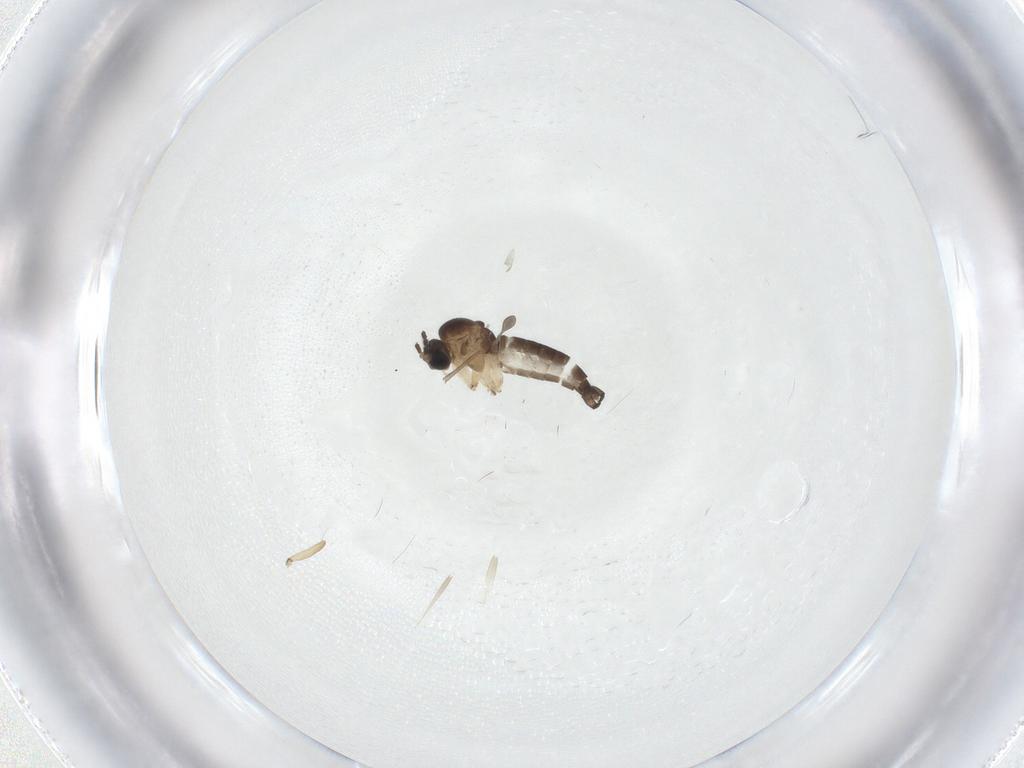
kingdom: Animalia
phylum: Arthropoda
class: Insecta
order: Diptera
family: Sciaridae
